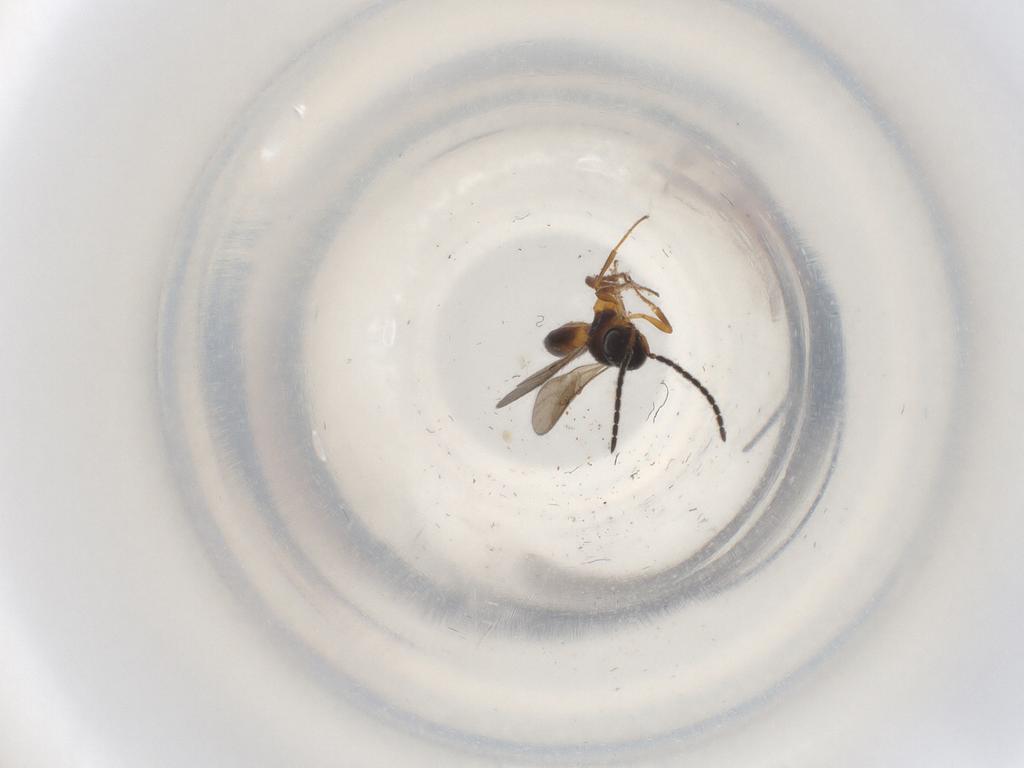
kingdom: Animalia
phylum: Arthropoda
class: Insecta
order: Hymenoptera
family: Scelionidae
